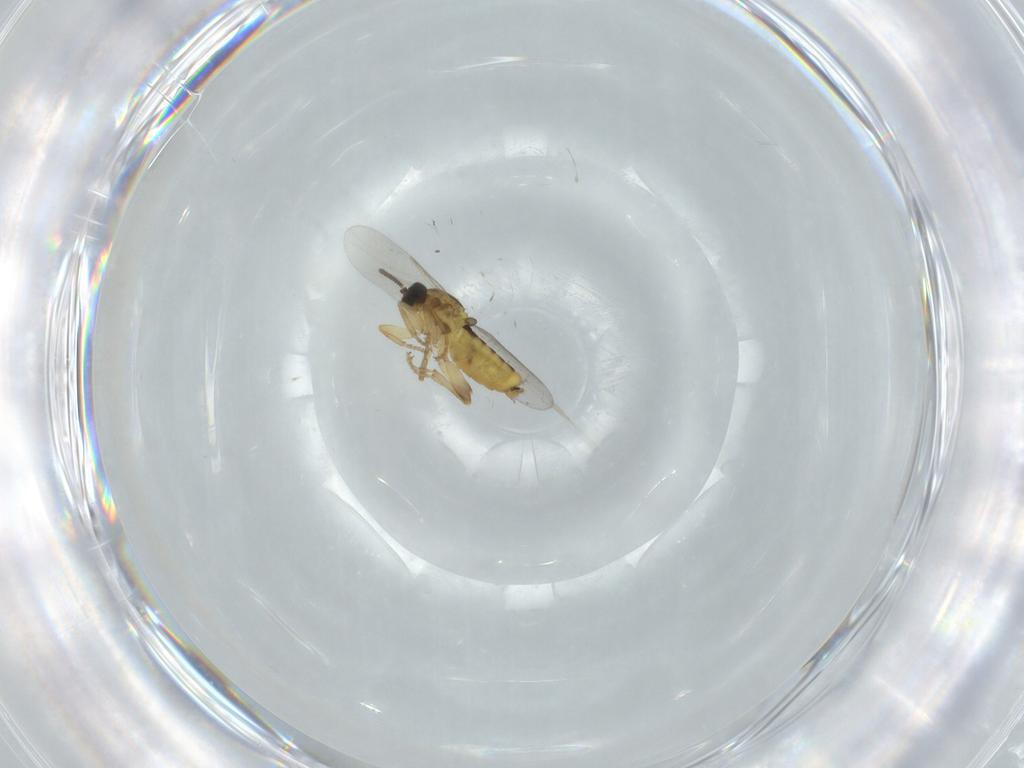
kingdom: Animalia
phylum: Arthropoda
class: Insecta
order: Diptera
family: Scatopsidae
